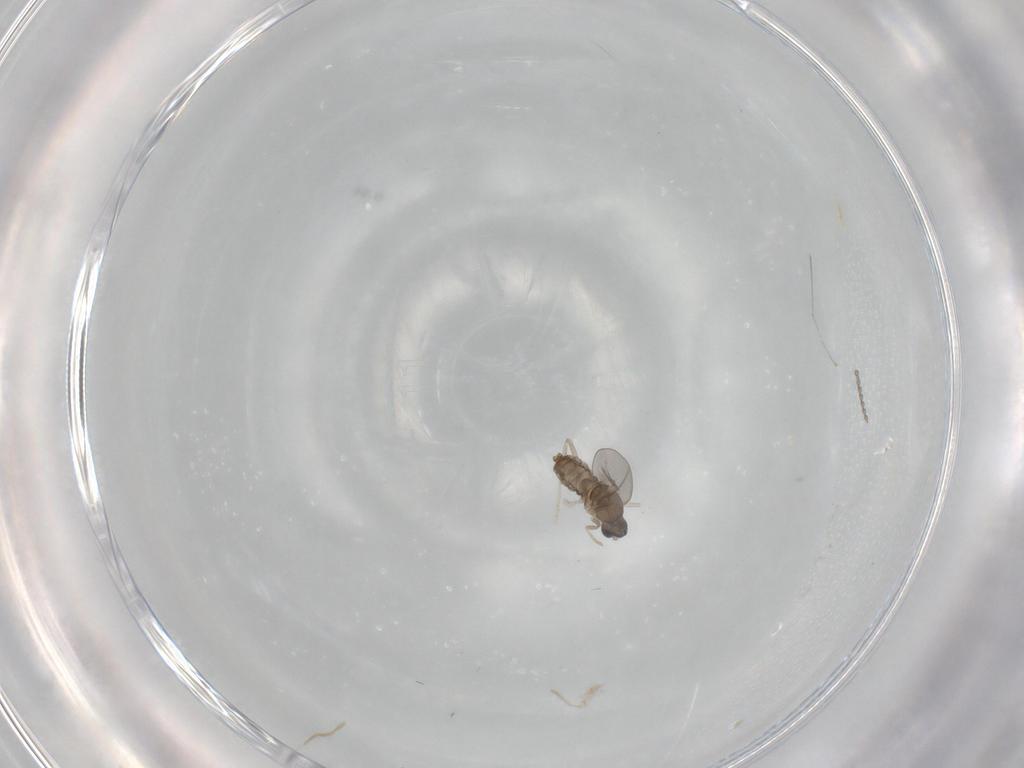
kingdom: Animalia
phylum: Arthropoda
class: Insecta
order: Diptera
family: Cecidomyiidae
